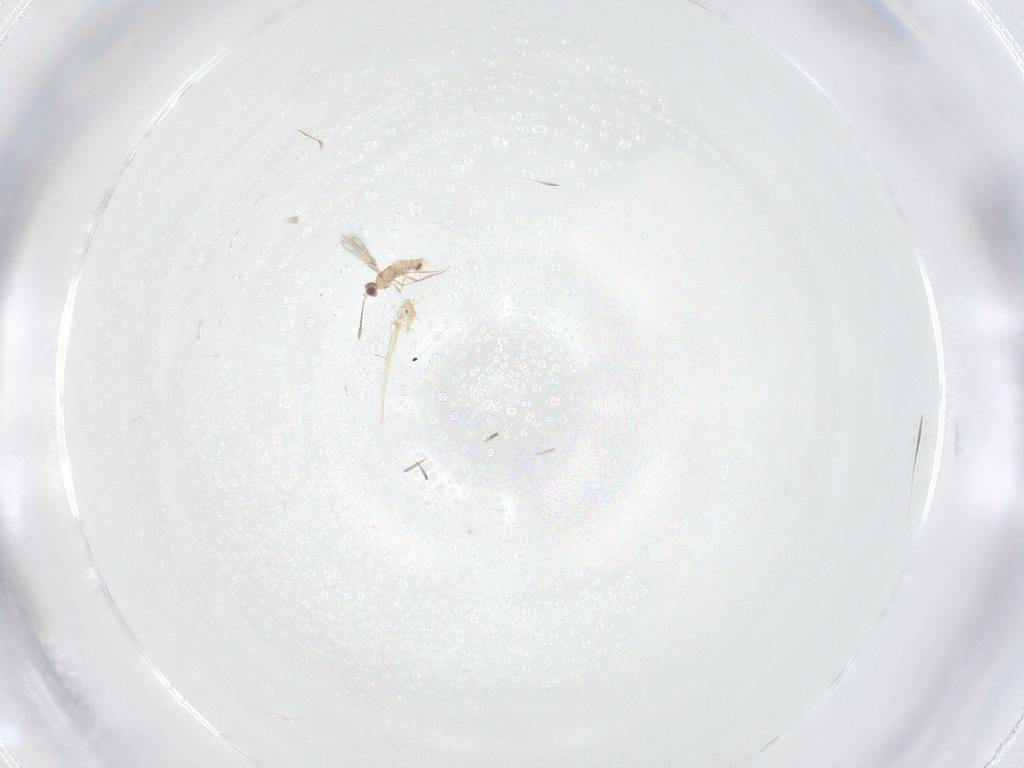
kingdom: Animalia
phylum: Arthropoda
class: Insecta
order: Hymenoptera
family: Mymaridae
